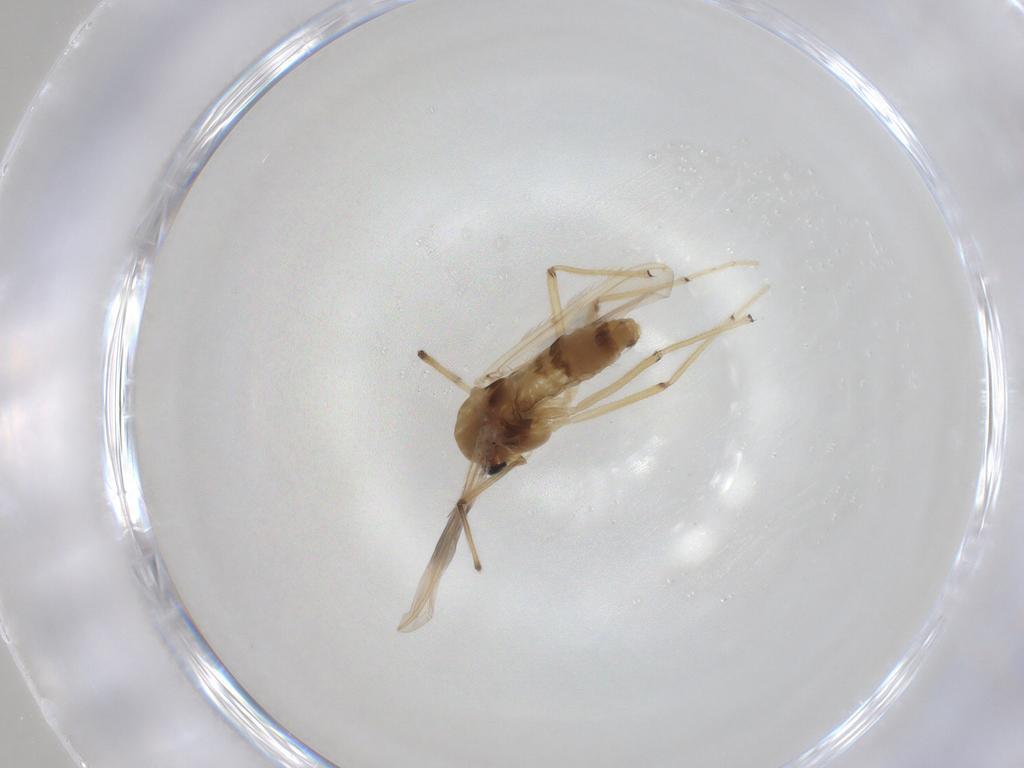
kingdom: Animalia
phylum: Arthropoda
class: Insecta
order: Diptera
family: Chironomidae
